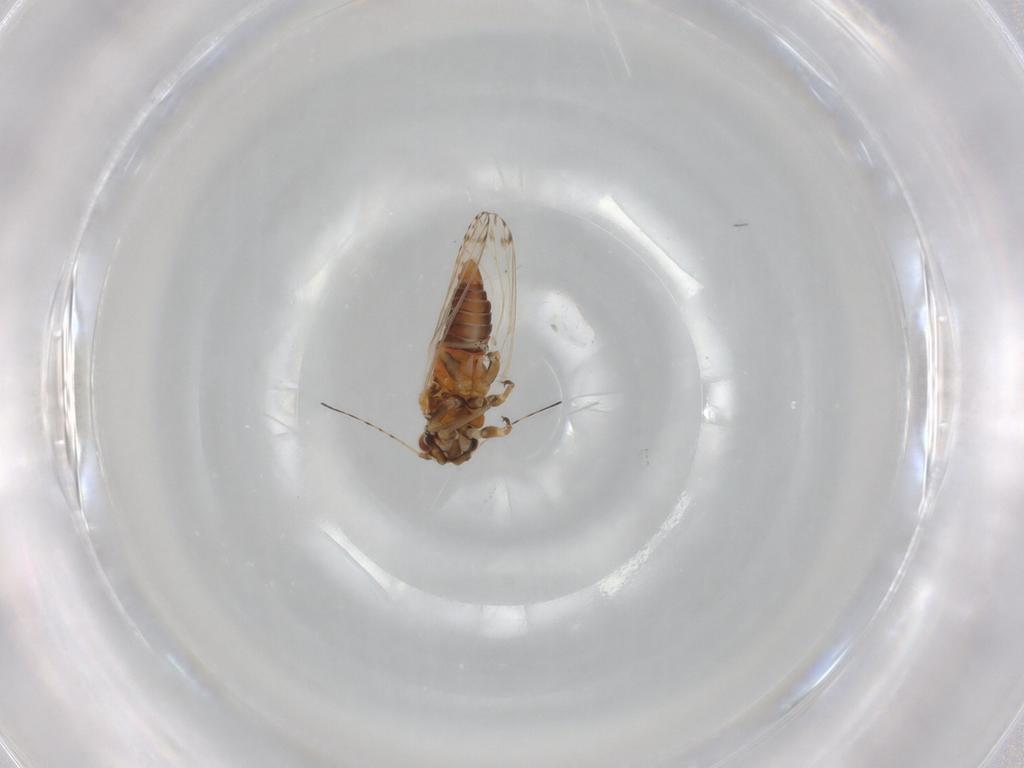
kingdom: Animalia
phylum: Arthropoda
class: Insecta
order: Hemiptera
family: Psyllidae
